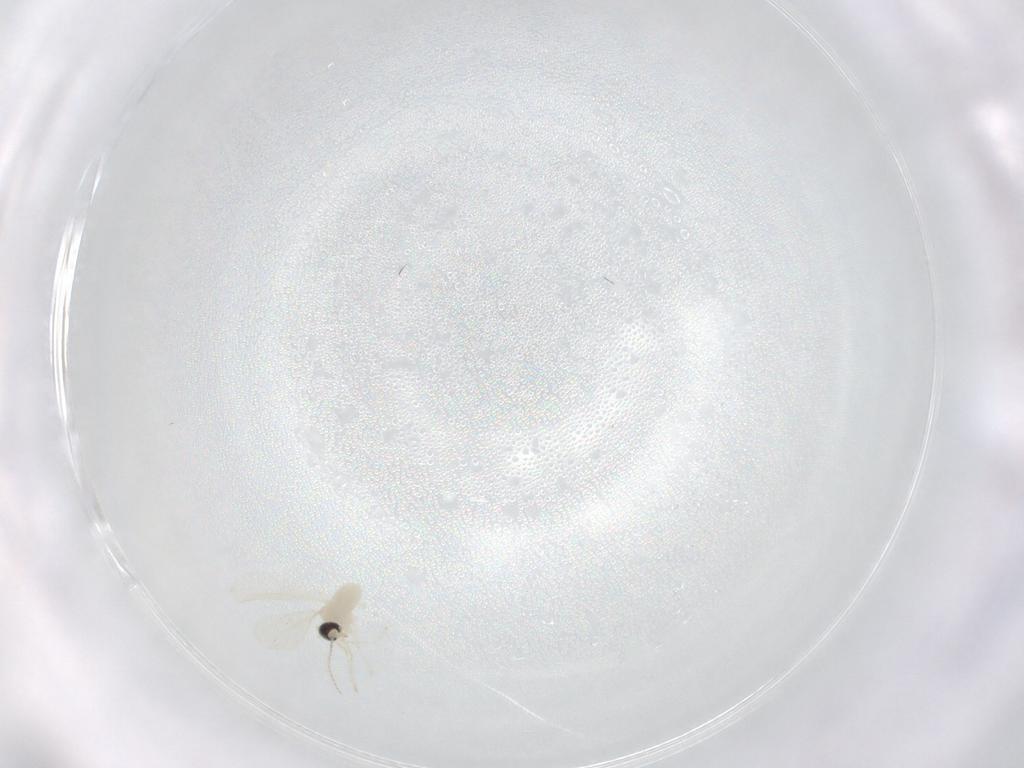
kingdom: Animalia
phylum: Arthropoda
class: Insecta
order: Diptera
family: Cecidomyiidae
